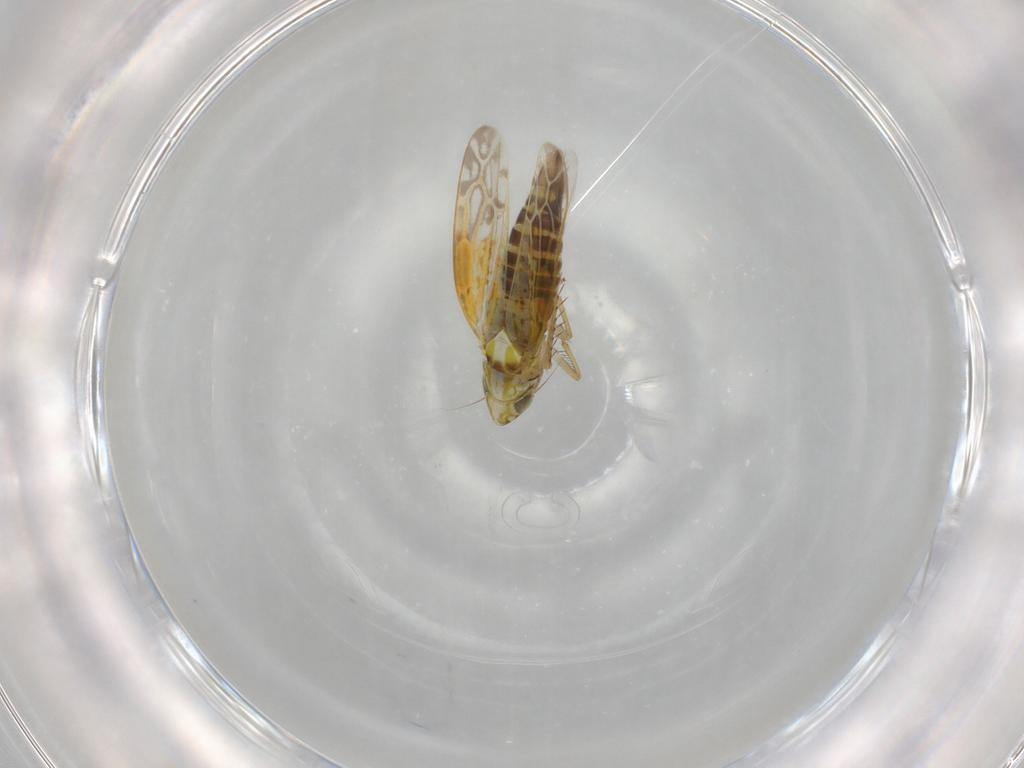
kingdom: Animalia
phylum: Arthropoda
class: Insecta
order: Hemiptera
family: Cicadellidae
